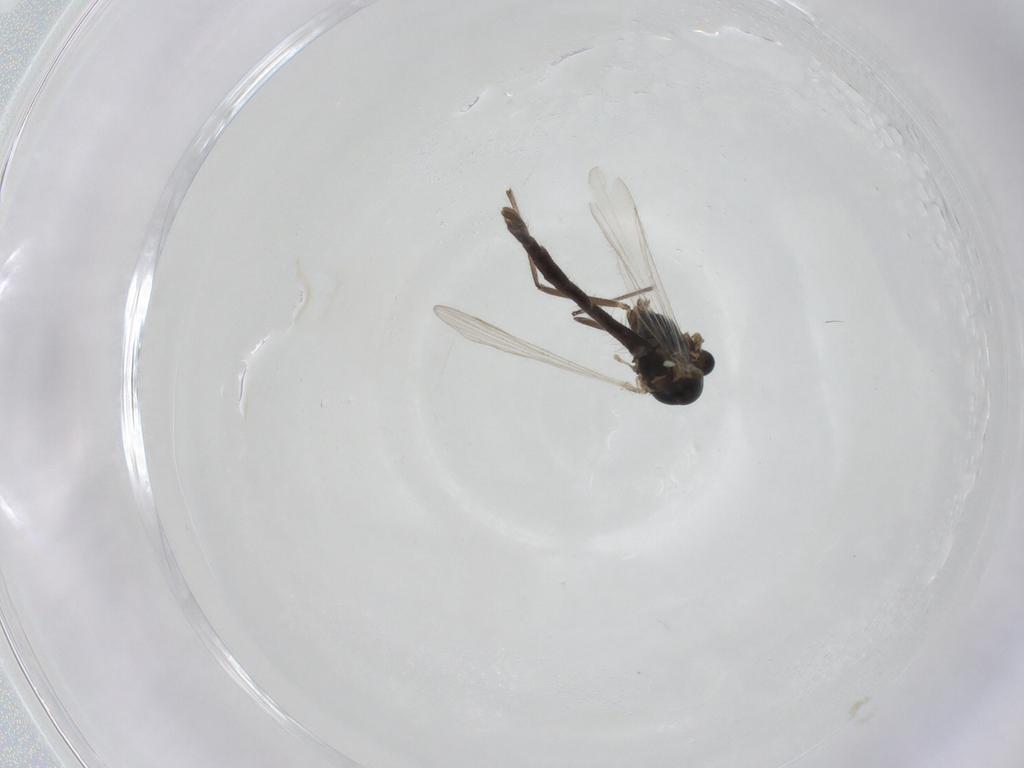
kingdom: Animalia
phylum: Arthropoda
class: Insecta
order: Diptera
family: Chironomidae
